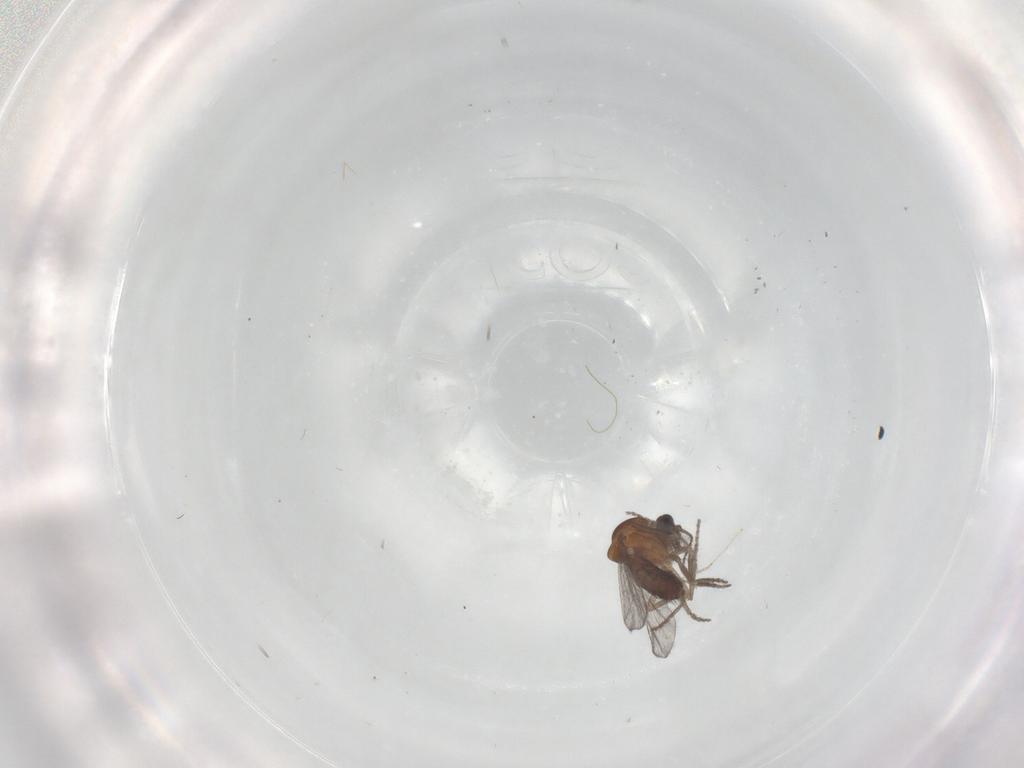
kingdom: Animalia
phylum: Arthropoda
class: Insecta
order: Diptera
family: Cecidomyiidae
